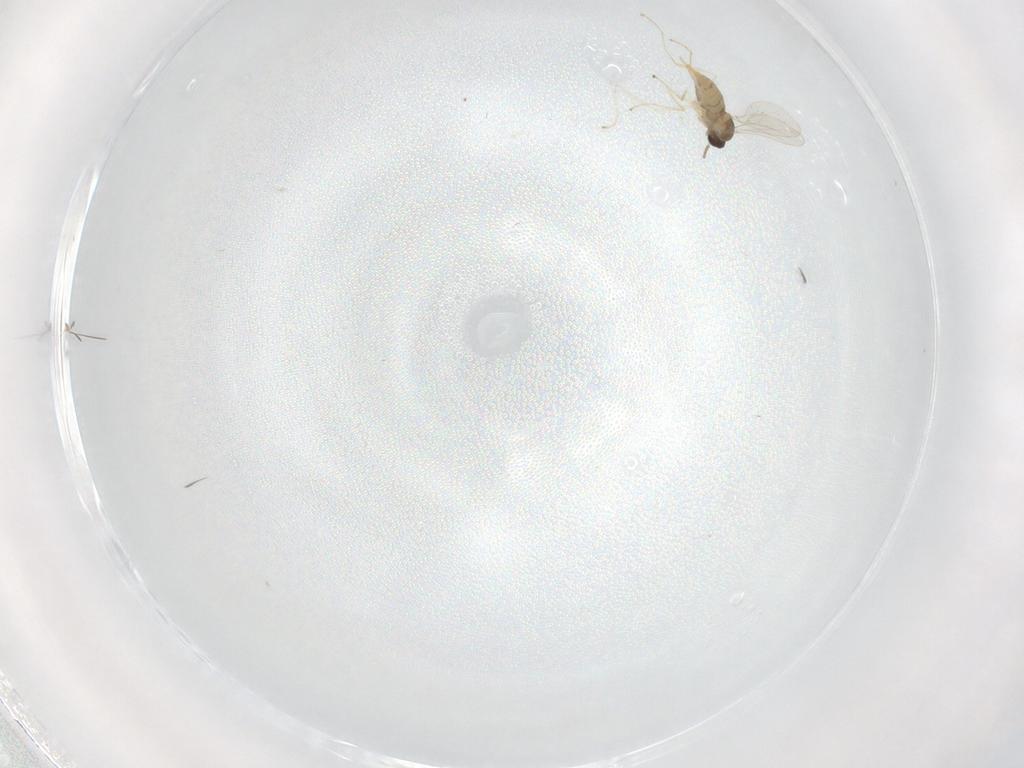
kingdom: Animalia
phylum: Arthropoda
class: Insecta
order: Diptera
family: Cecidomyiidae
